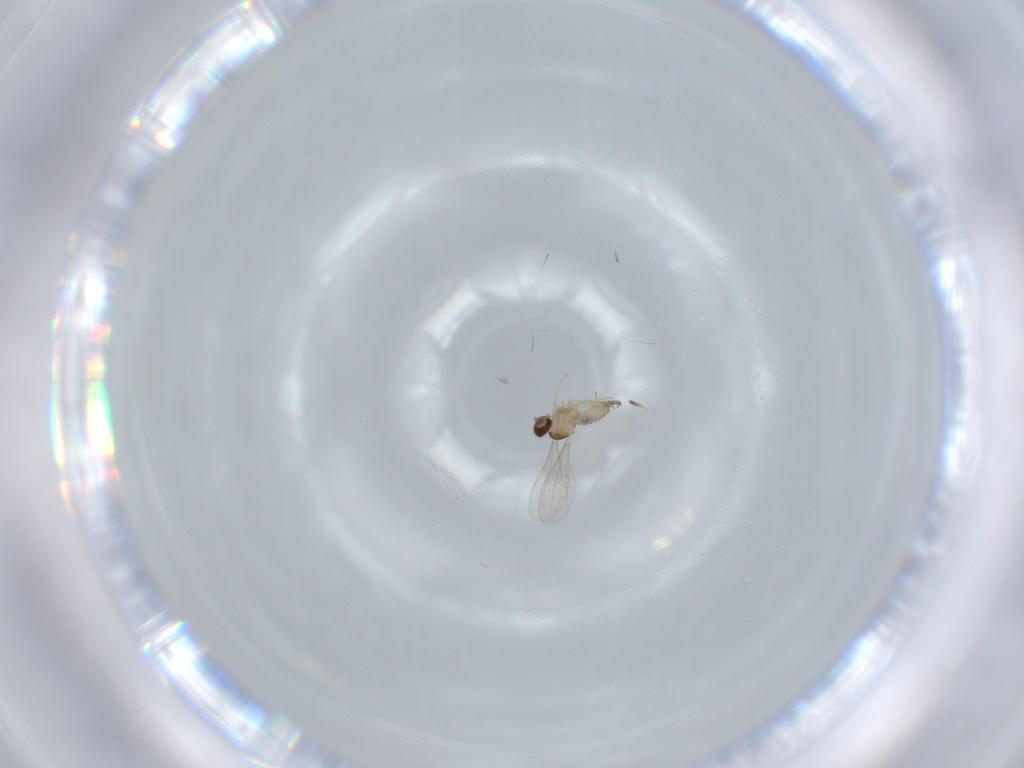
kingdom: Animalia
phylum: Arthropoda
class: Insecta
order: Diptera
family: Cecidomyiidae
